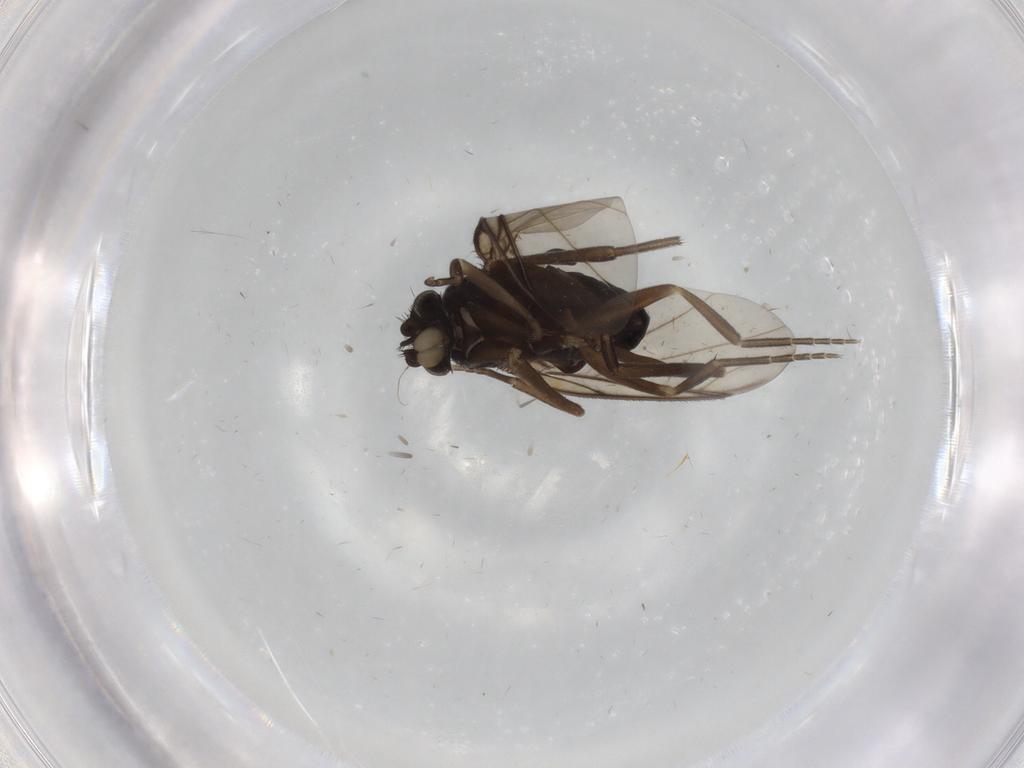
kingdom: Animalia
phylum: Arthropoda
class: Insecta
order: Diptera
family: Phoridae
